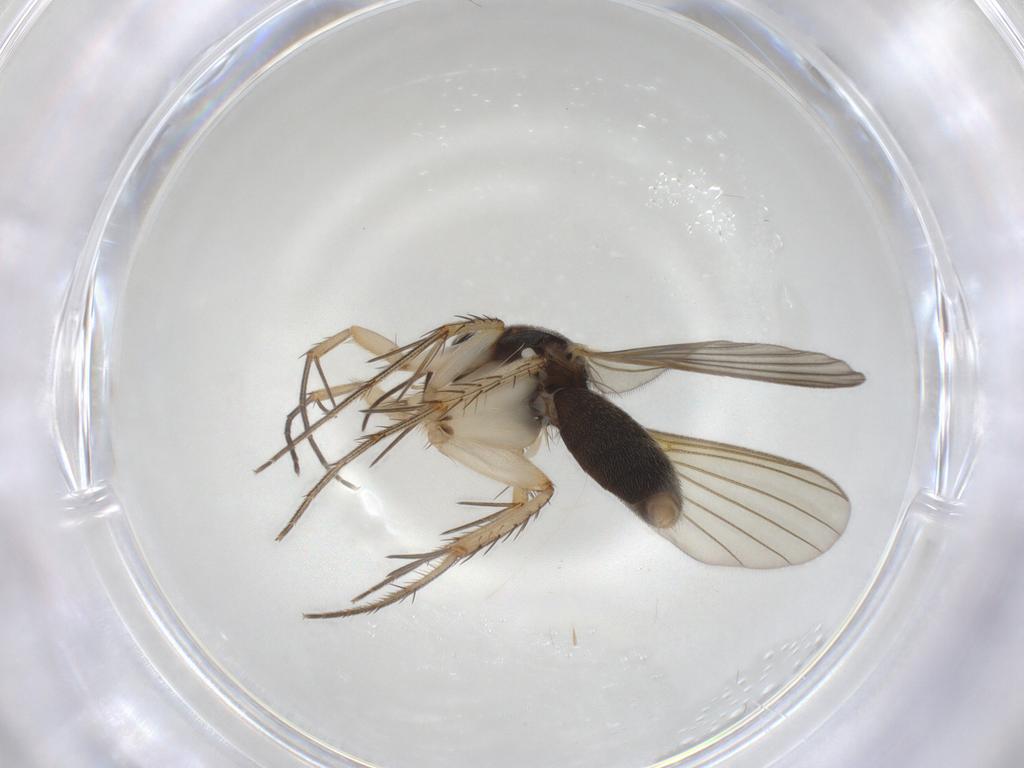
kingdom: Animalia
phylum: Arthropoda
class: Insecta
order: Diptera
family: Mycetophilidae
